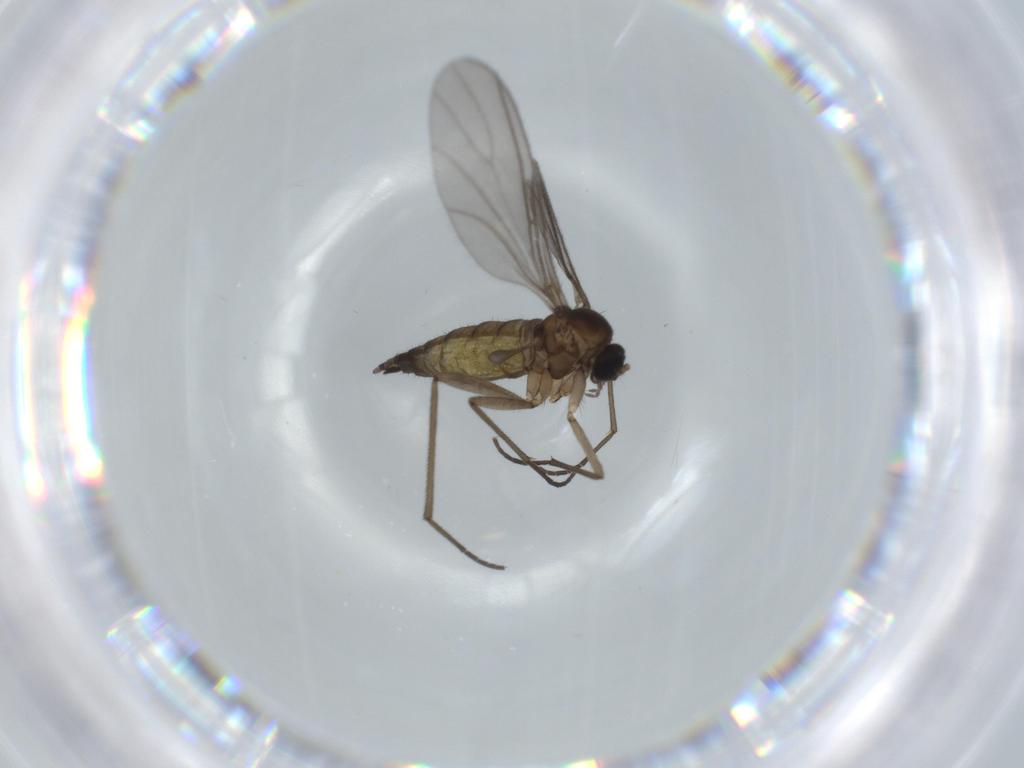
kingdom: Animalia
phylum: Arthropoda
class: Insecta
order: Diptera
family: Sciaridae
